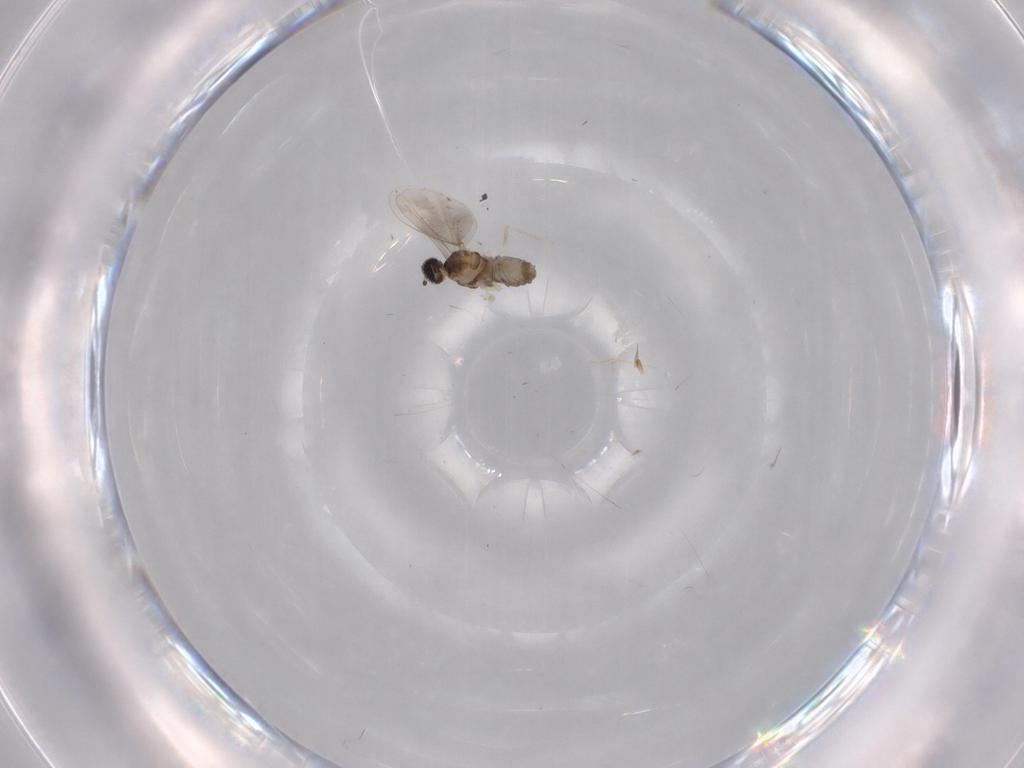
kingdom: Animalia
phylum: Arthropoda
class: Insecta
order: Diptera
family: Cecidomyiidae
